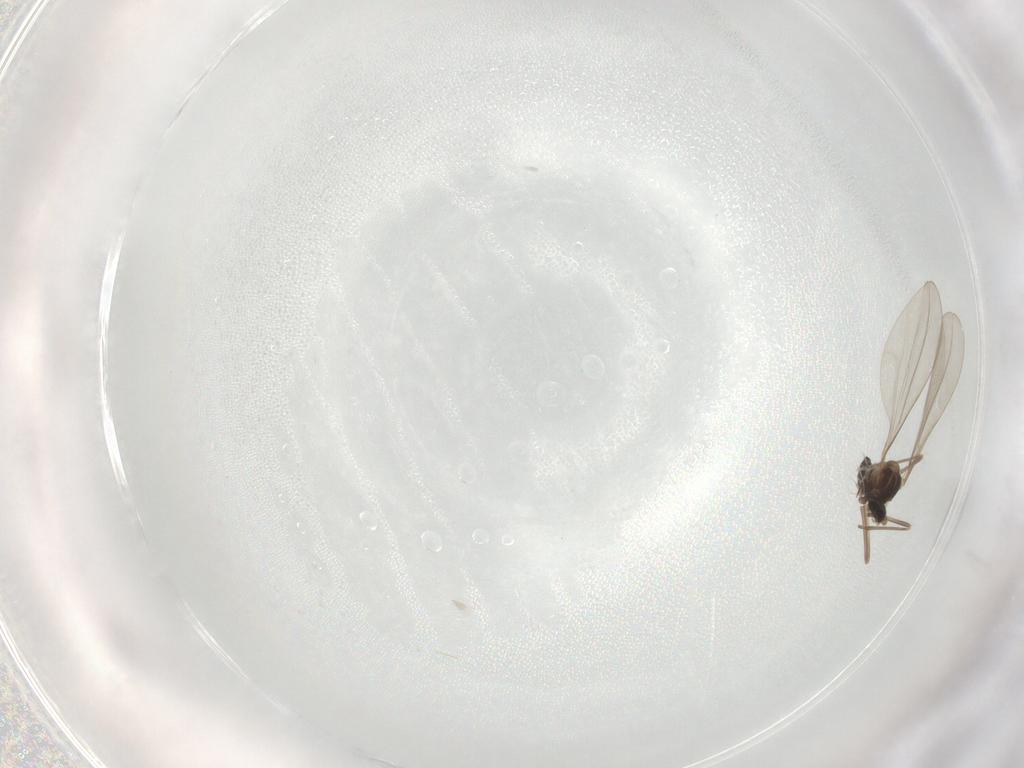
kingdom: Animalia
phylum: Arthropoda
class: Insecta
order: Diptera
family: Cecidomyiidae
